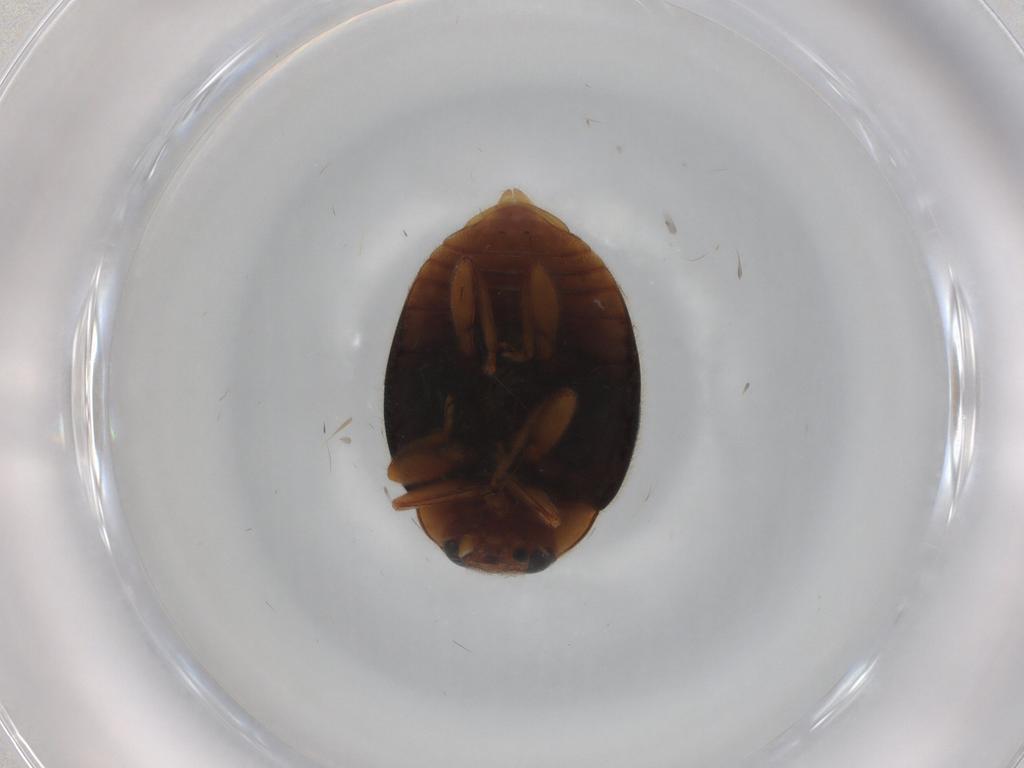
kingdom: Animalia
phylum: Arthropoda
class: Insecta
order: Coleoptera
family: Coccinellidae
